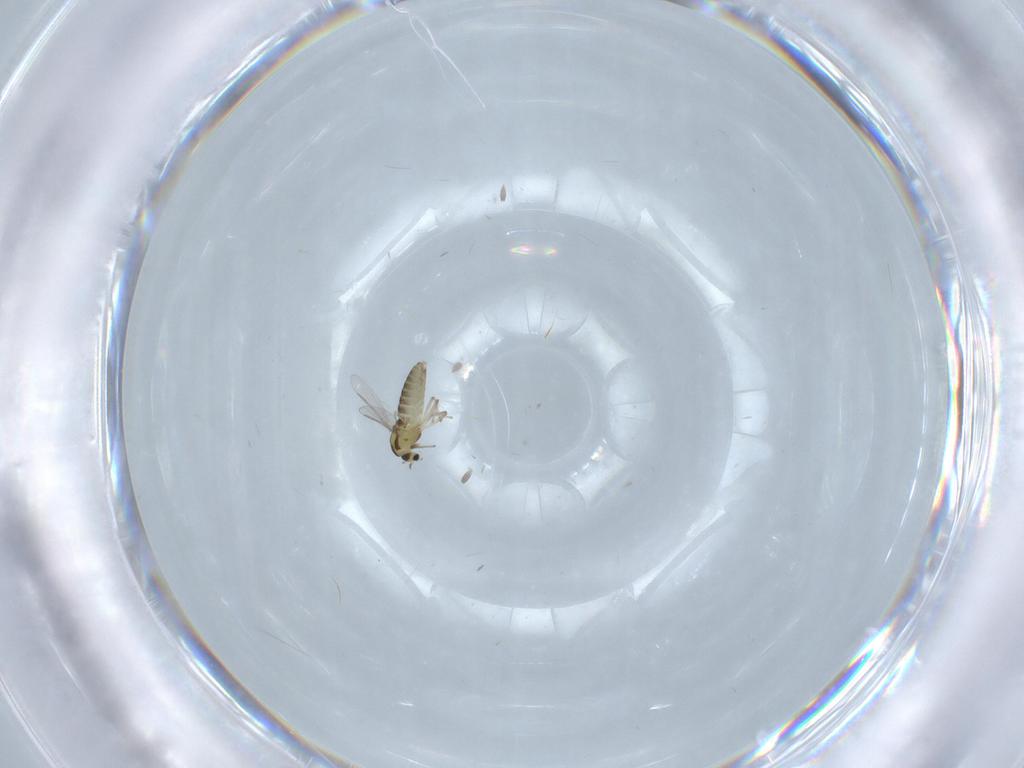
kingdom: Animalia
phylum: Arthropoda
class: Insecta
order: Diptera
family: Chironomidae
